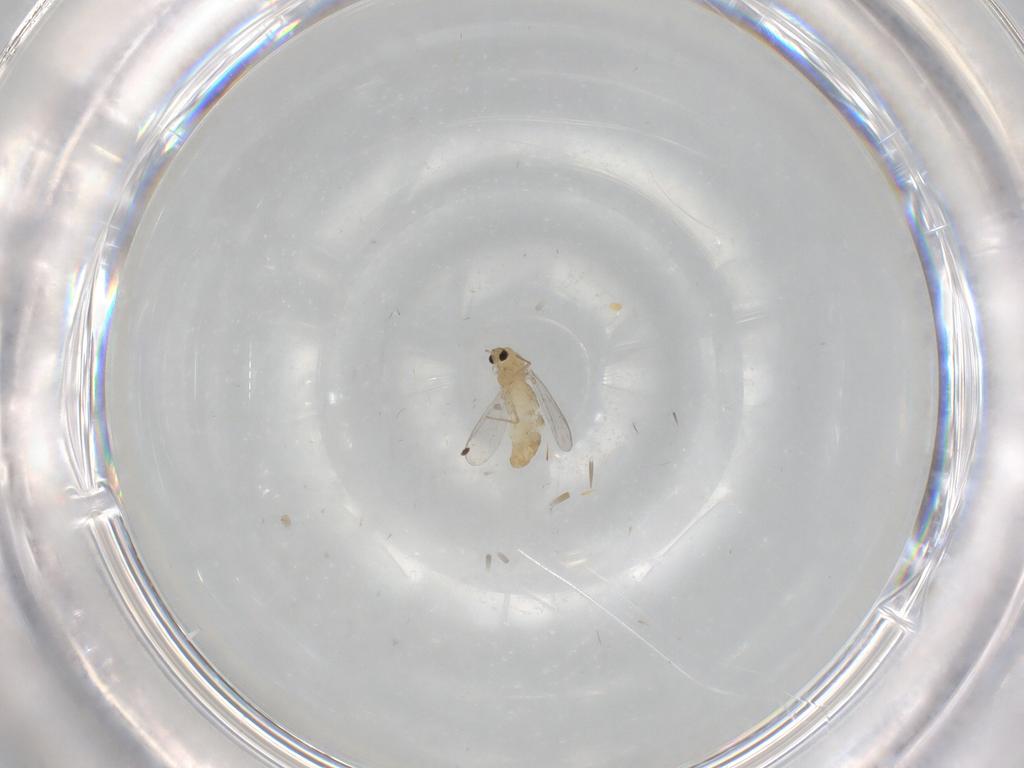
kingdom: Animalia
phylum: Arthropoda
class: Insecta
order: Diptera
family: Chironomidae
